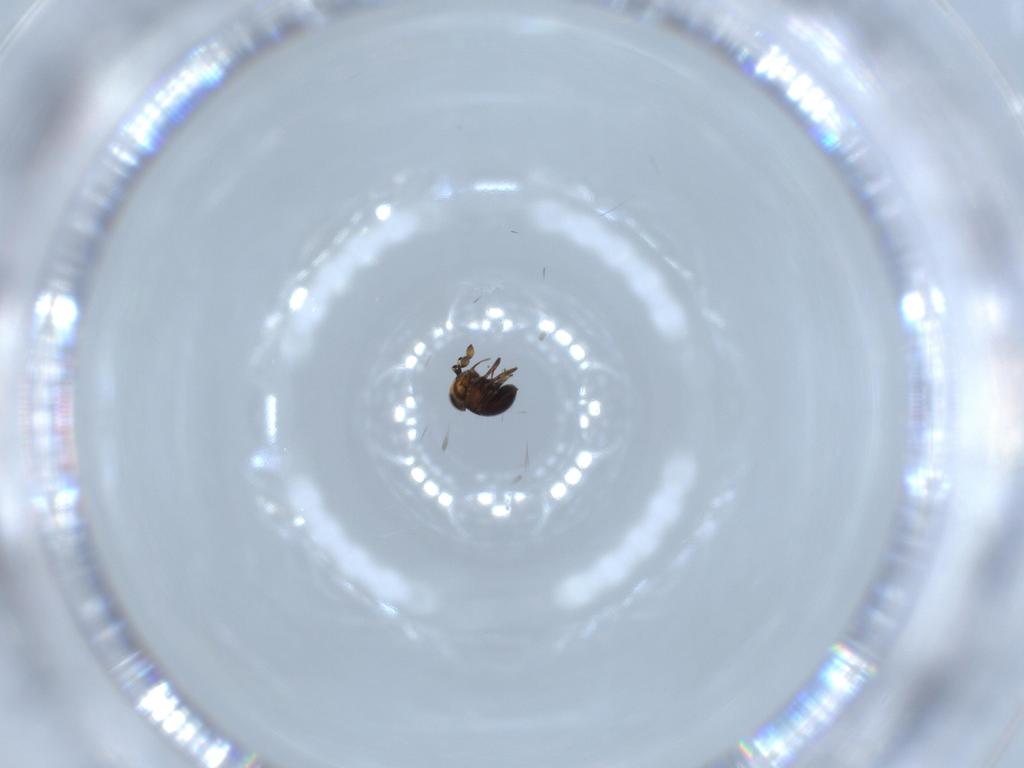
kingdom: Animalia
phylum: Arthropoda
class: Insecta
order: Hymenoptera
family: Scelionidae
